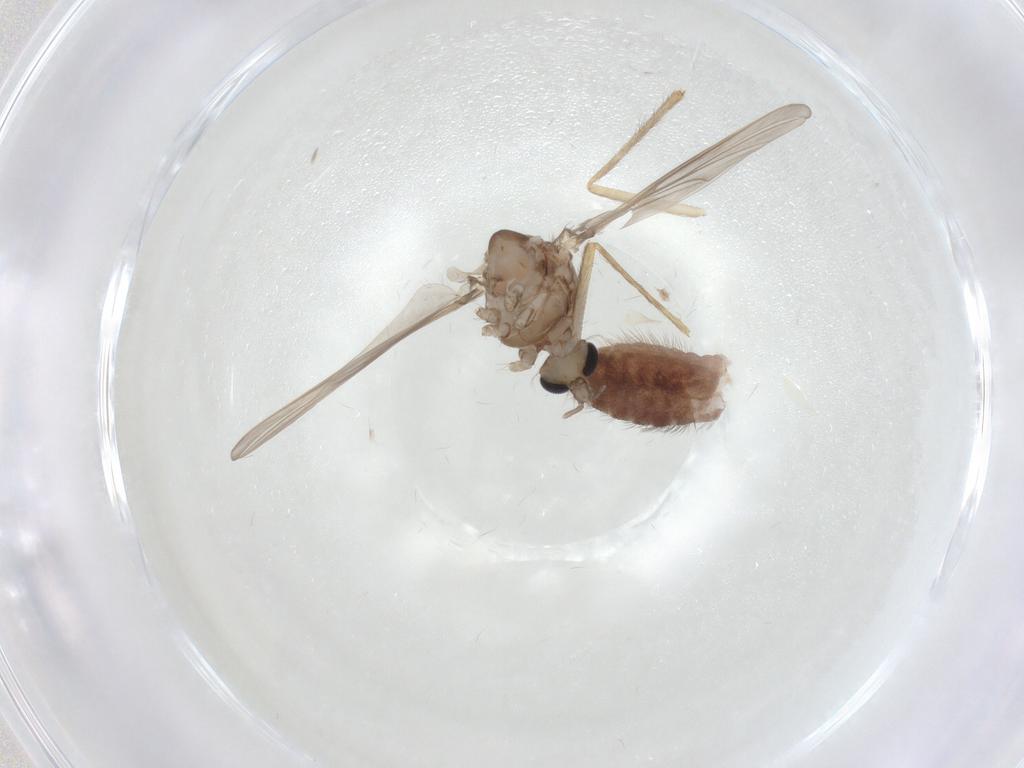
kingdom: Animalia
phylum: Arthropoda
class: Insecta
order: Diptera
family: Chironomidae
